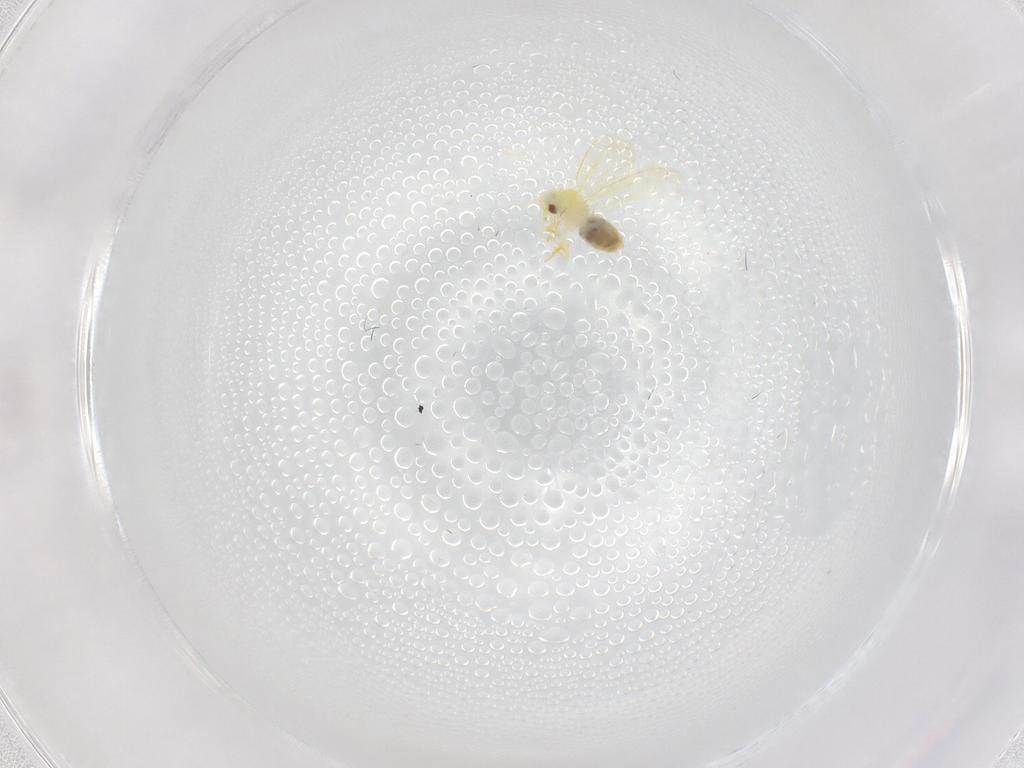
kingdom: Animalia
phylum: Arthropoda
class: Insecta
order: Hemiptera
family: Aleyrodidae
